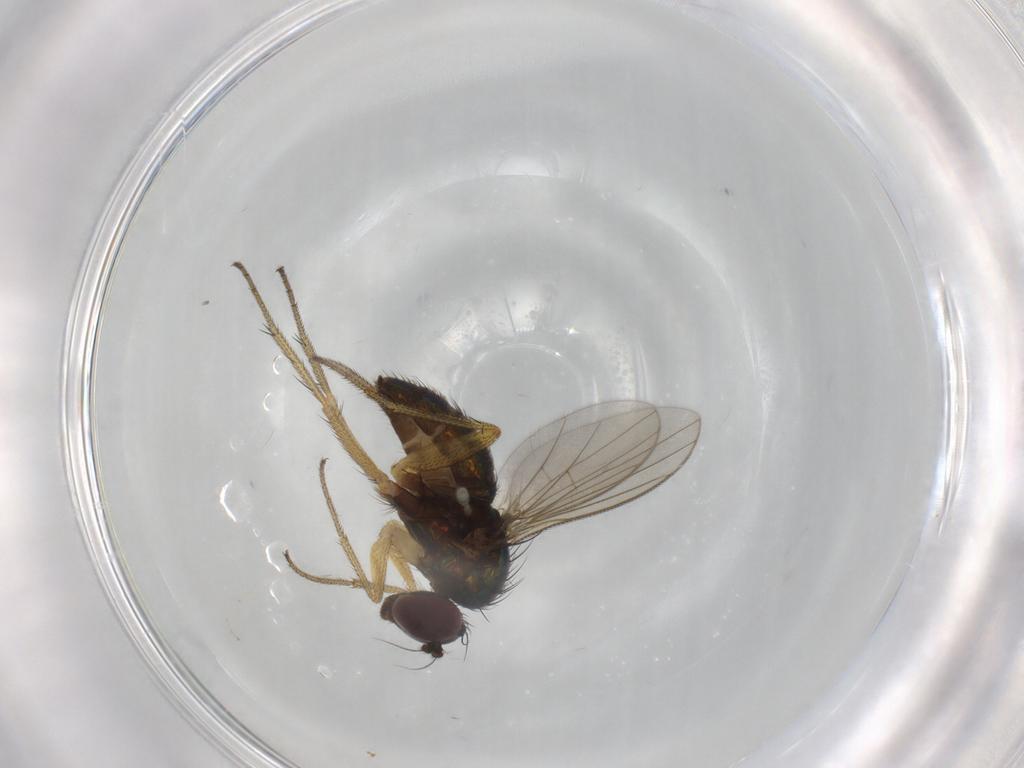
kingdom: Animalia
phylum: Arthropoda
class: Insecta
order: Diptera
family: Dolichopodidae
